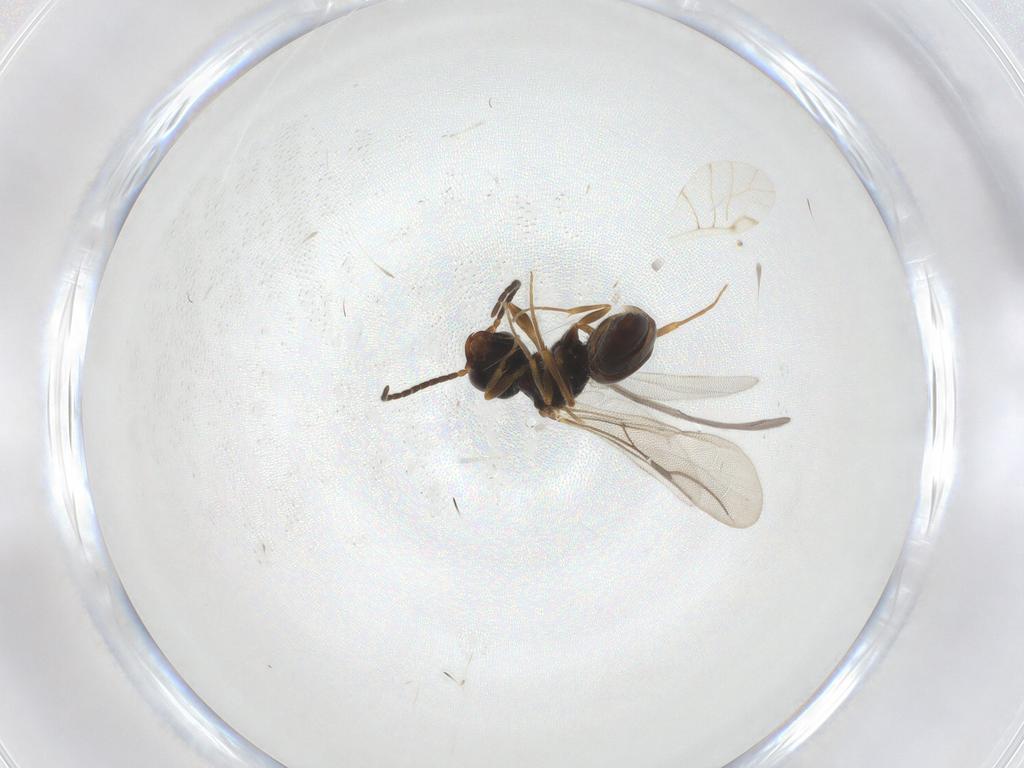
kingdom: Animalia
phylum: Arthropoda
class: Insecta
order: Hymenoptera
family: Bethylidae
